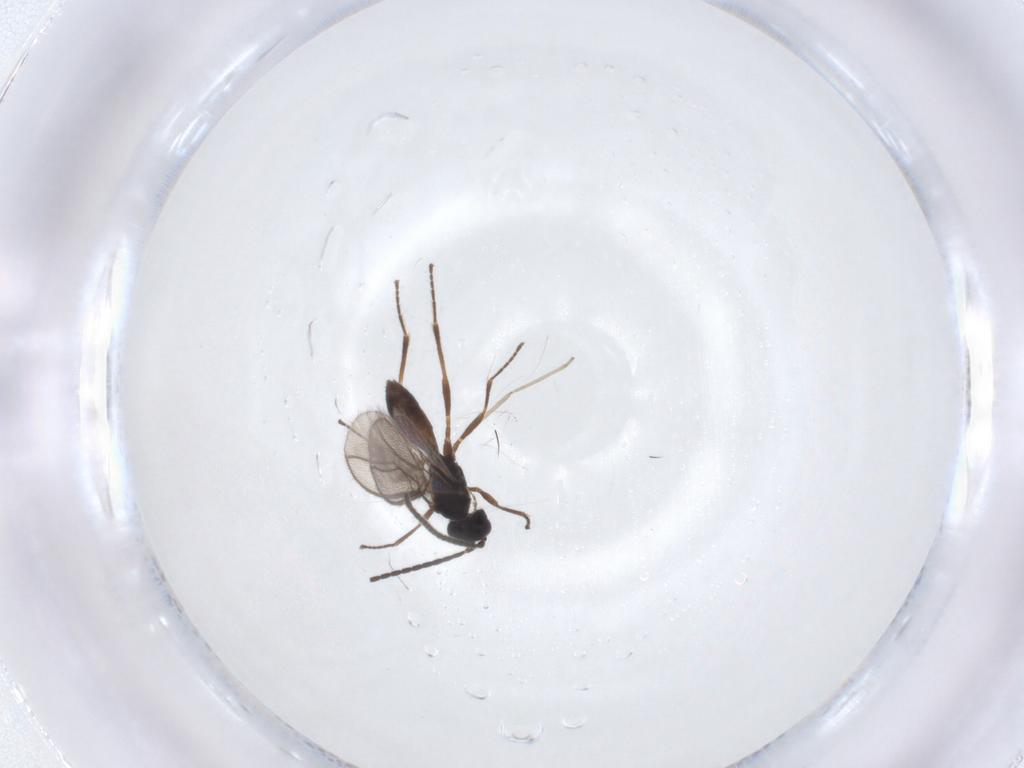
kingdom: Animalia
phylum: Arthropoda
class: Insecta
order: Hymenoptera
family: Braconidae
